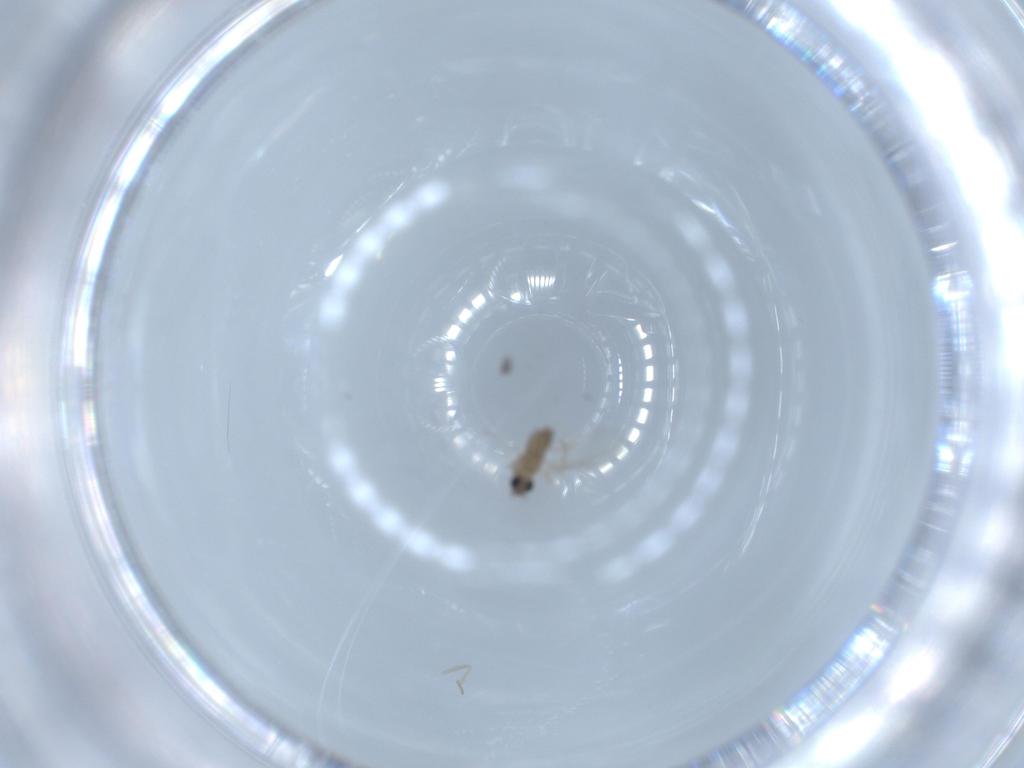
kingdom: Animalia
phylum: Arthropoda
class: Insecta
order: Diptera
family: Cecidomyiidae
